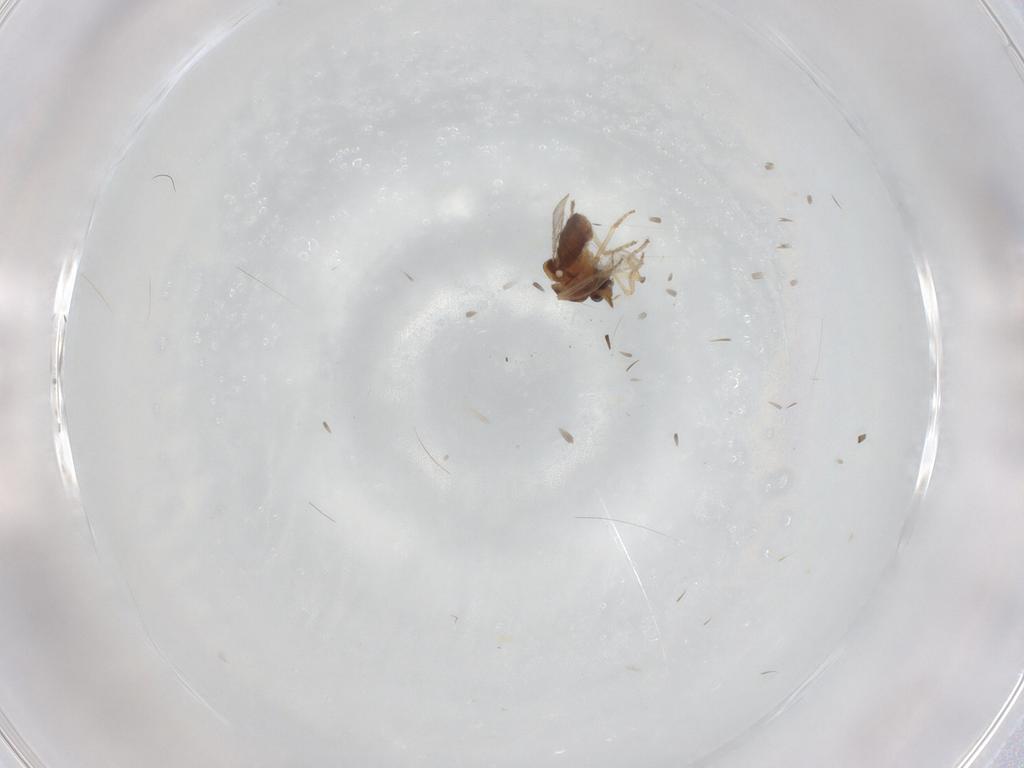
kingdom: Animalia
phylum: Arthropoda
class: Insecta
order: Diptera
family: Ceratopogonidae
